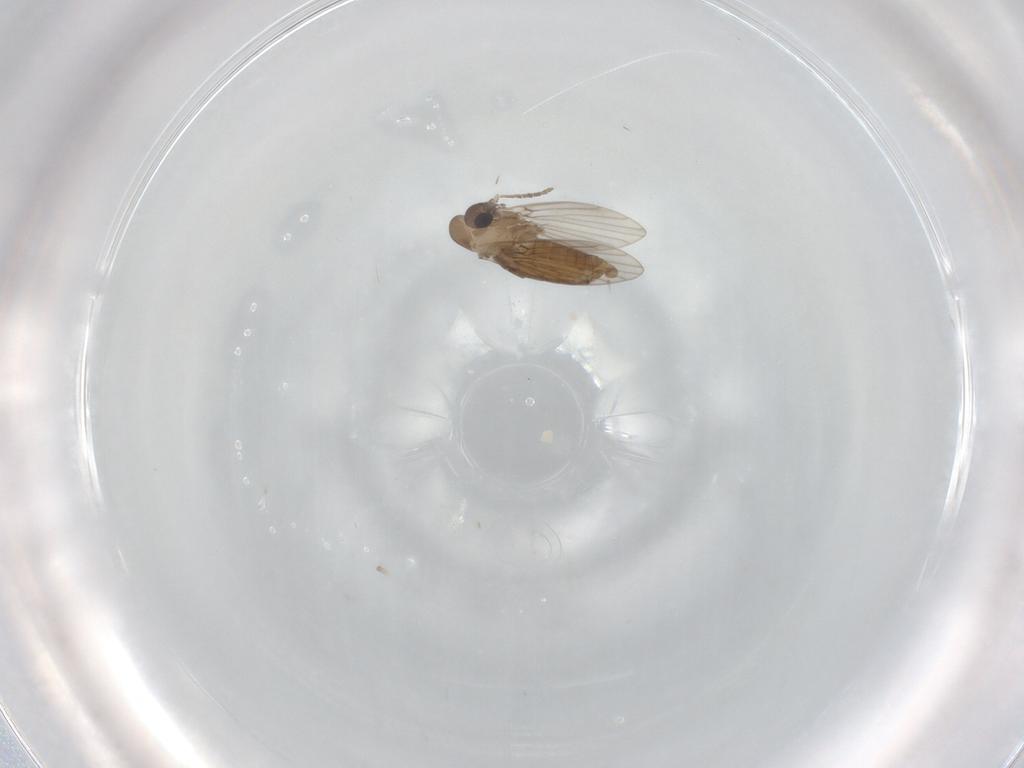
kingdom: Animalia
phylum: Arthropoda
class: Insecta
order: Diptera
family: Cecidomyiidae
